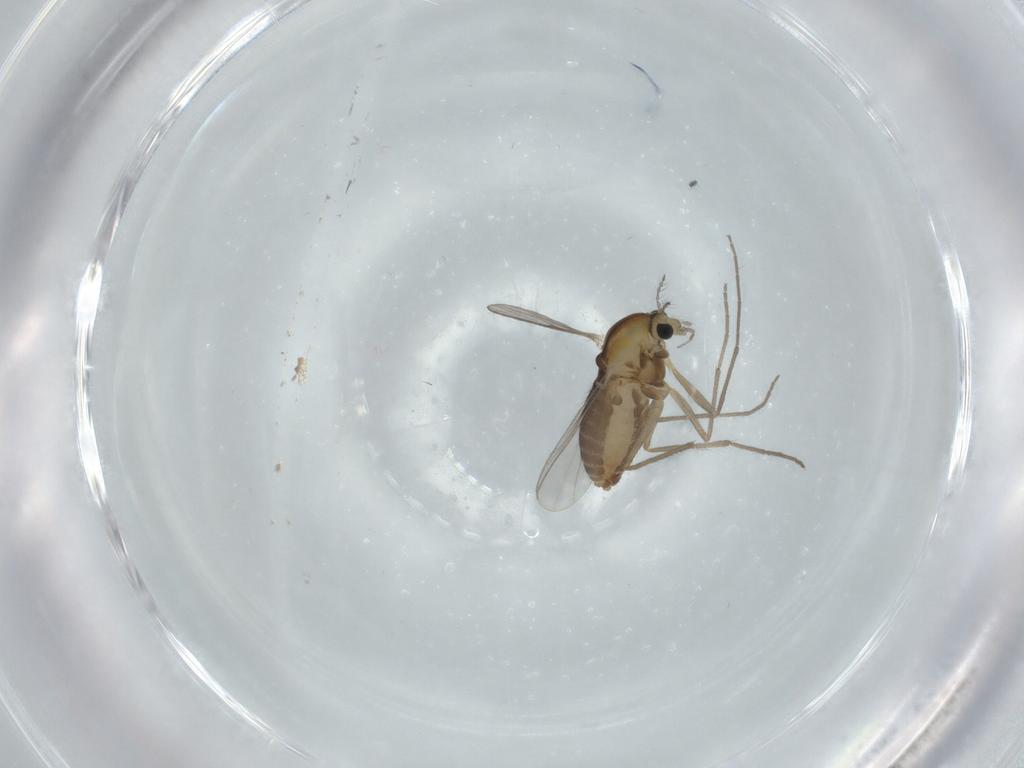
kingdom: Animalia
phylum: Arthropoda
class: Insecta
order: Diptera
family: Chironomidae
